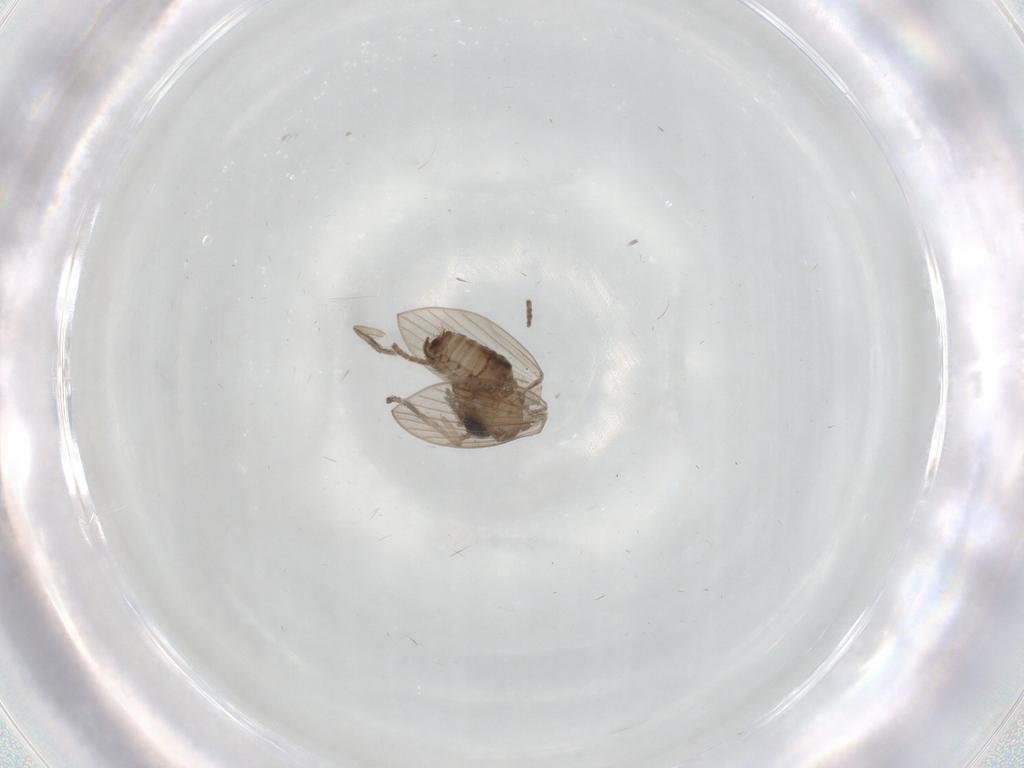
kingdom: Animalia
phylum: Arthropoda
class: Insecta
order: Diptera
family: Psychodidae
